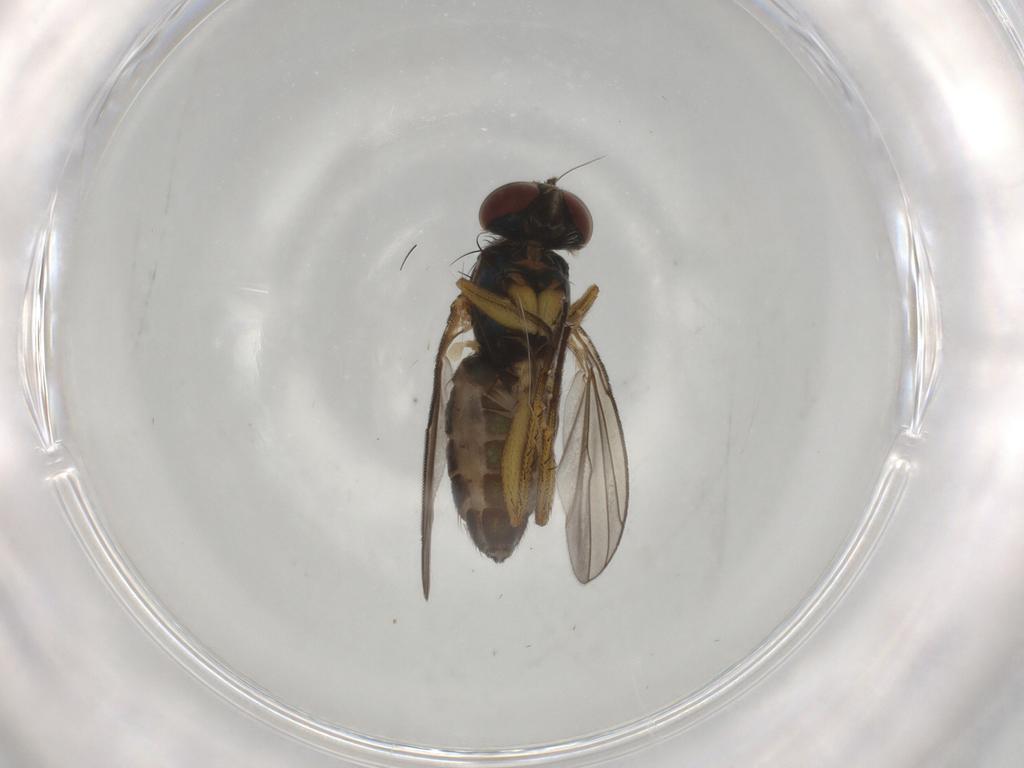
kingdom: Animalia
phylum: Arthropoda
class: Insecta
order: Diptera
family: Dolichopodidae
